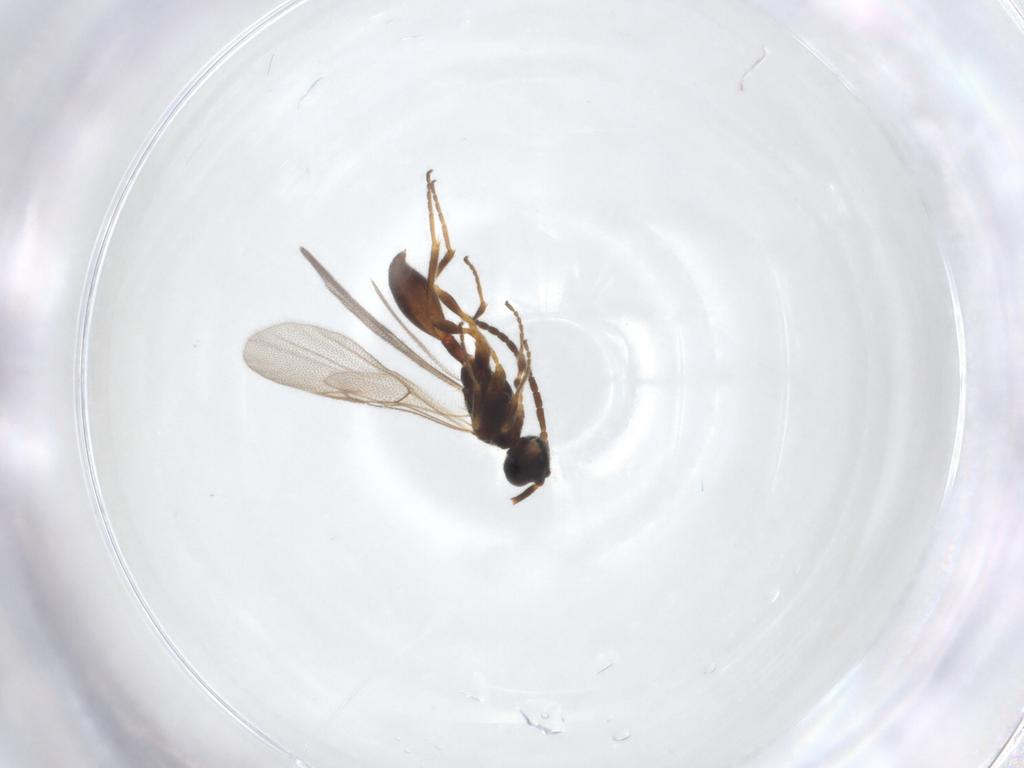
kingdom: Animalia
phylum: Arthropoda
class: Insecta
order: Hymenoptera
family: Diapriidae
